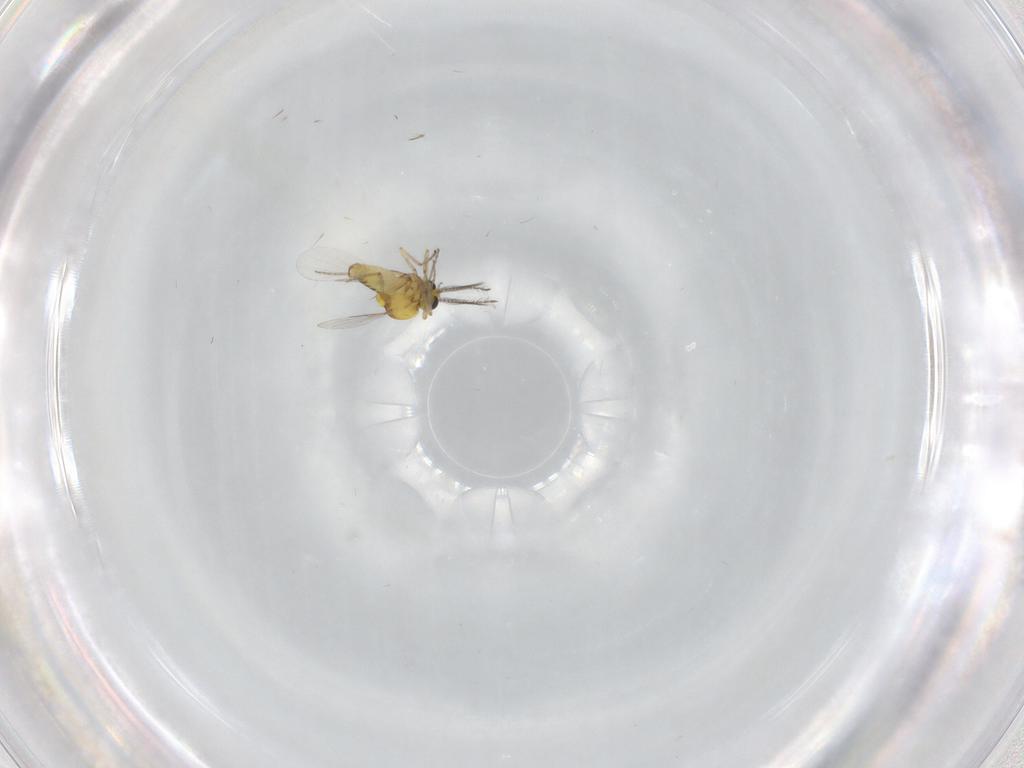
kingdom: Animalia
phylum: Arthropoda
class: Insecta
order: Diptera
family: Ceratopogonidae
